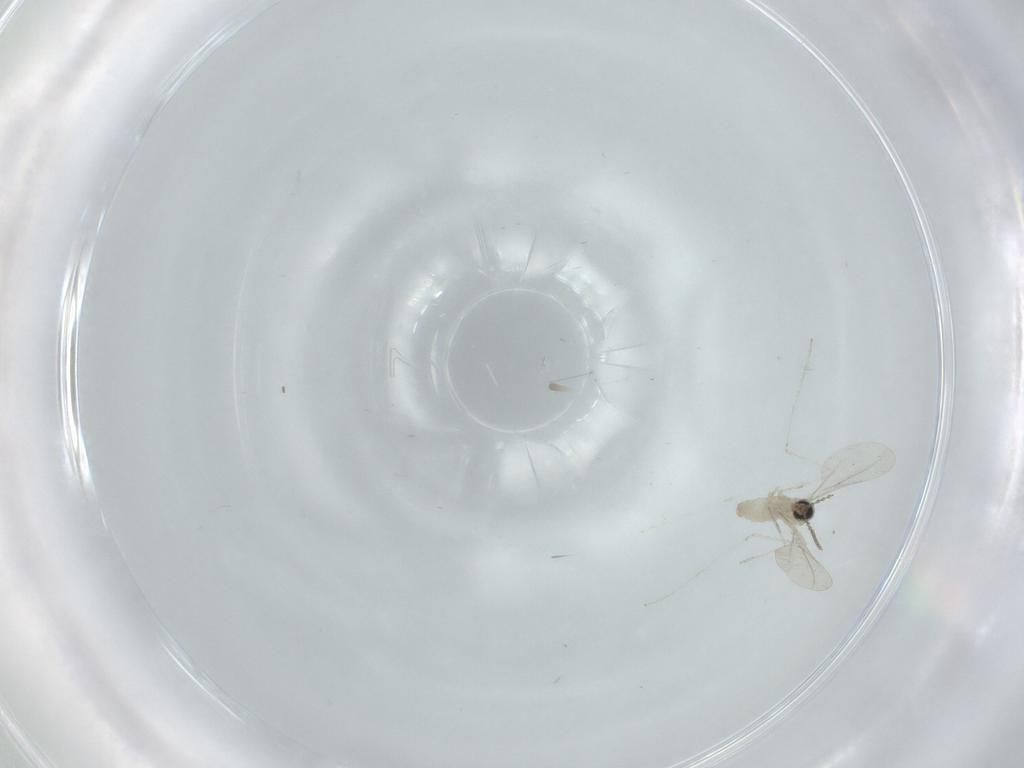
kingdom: Animalia
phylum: Arthropoda
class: Insecta
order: Diptera
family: Cecidomyiidae
